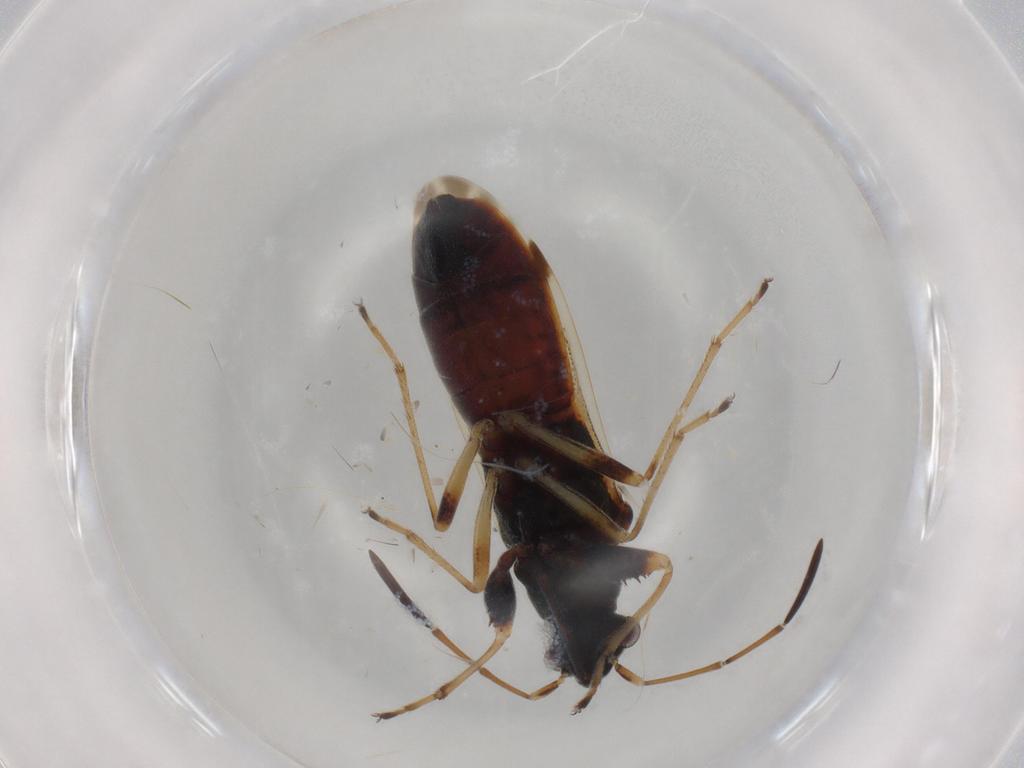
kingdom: Animalia
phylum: Arthropoda
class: Insecta
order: Hemiptera
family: Rhyparochromidae
